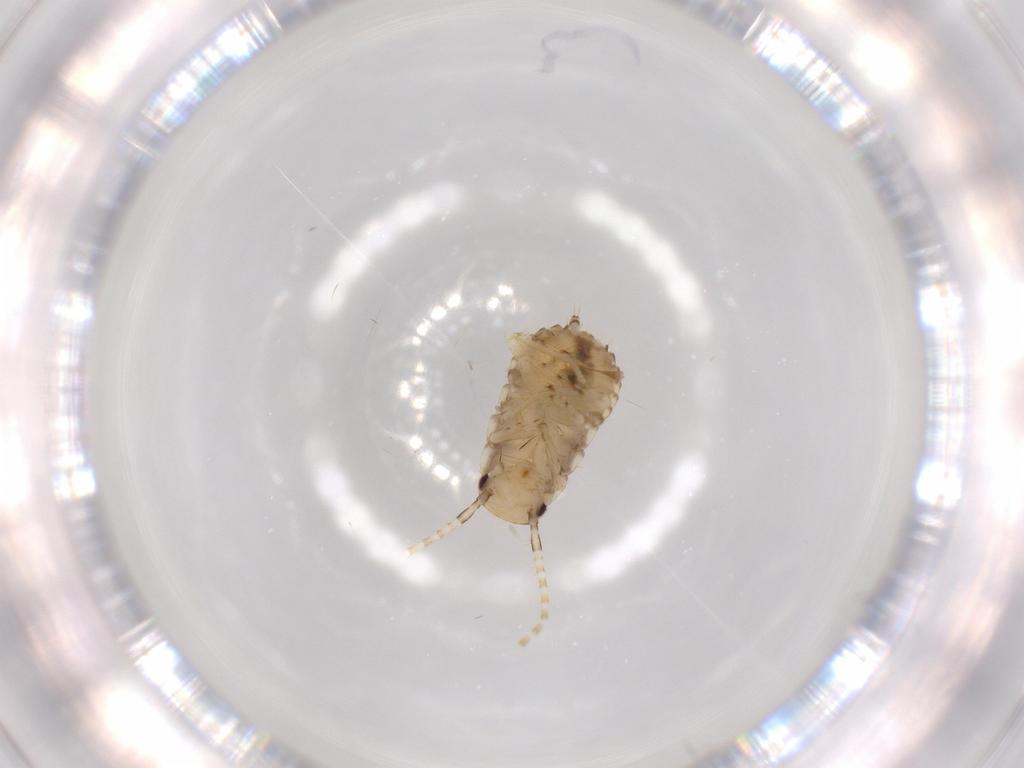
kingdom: Animalia
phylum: Arthropoda
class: Insecta
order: Blattodea
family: Ectobiidae
